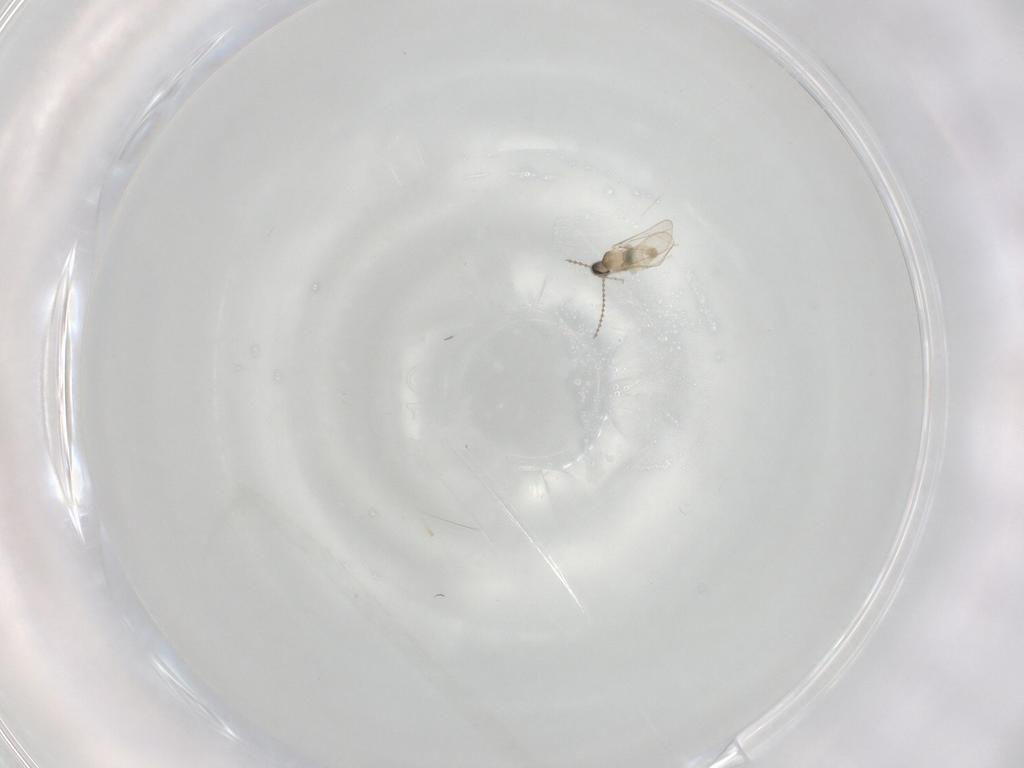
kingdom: Animalia
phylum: Arthropoda
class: Insecta
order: Diptera
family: Cecidomyiidae
